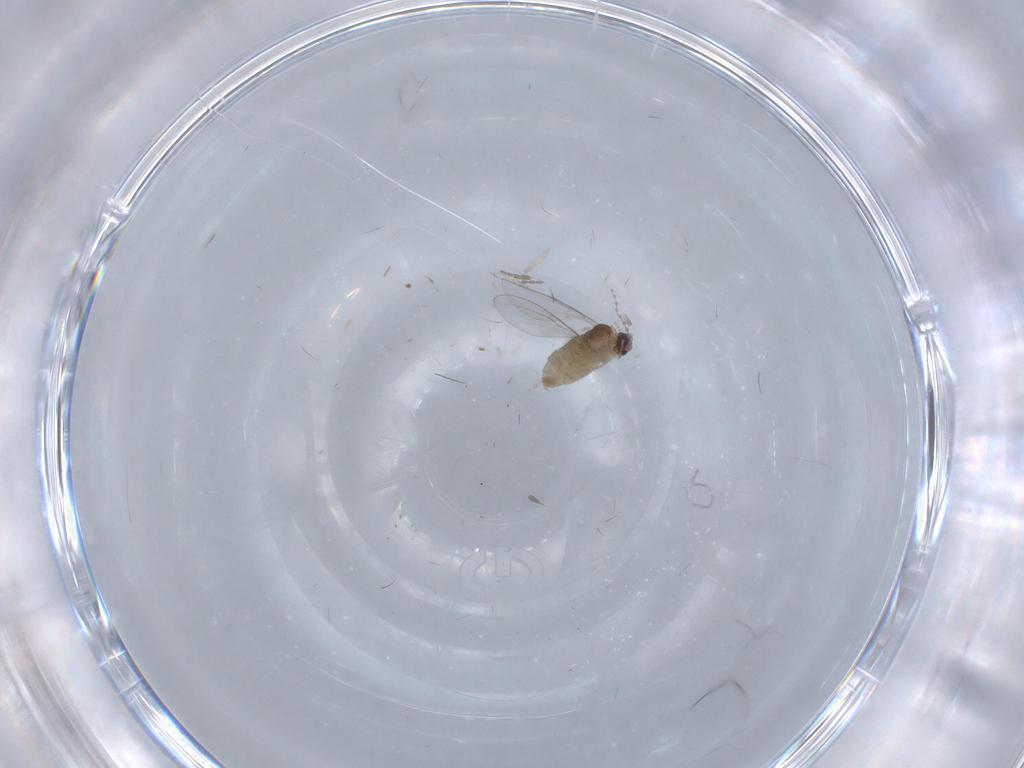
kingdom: Animalia
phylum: Arthropoda
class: Insecta
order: Diptera
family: Cecidomyiidae
